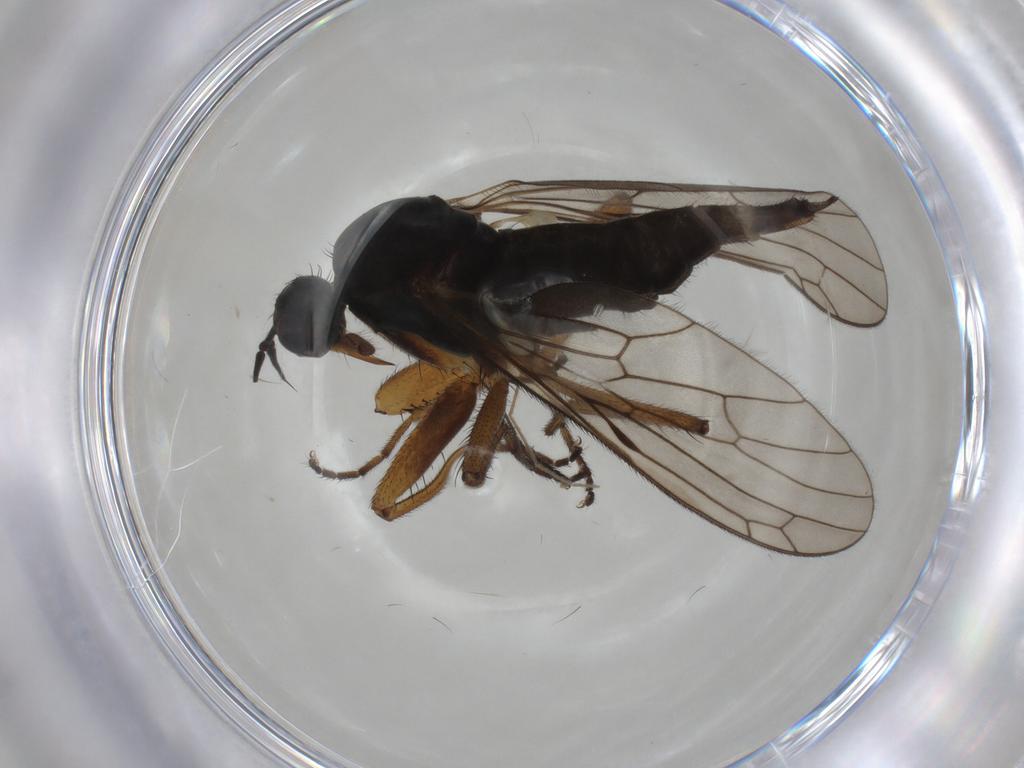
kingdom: Animalia
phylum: Arthropoda
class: Insecta
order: Diptera
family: Empididae
